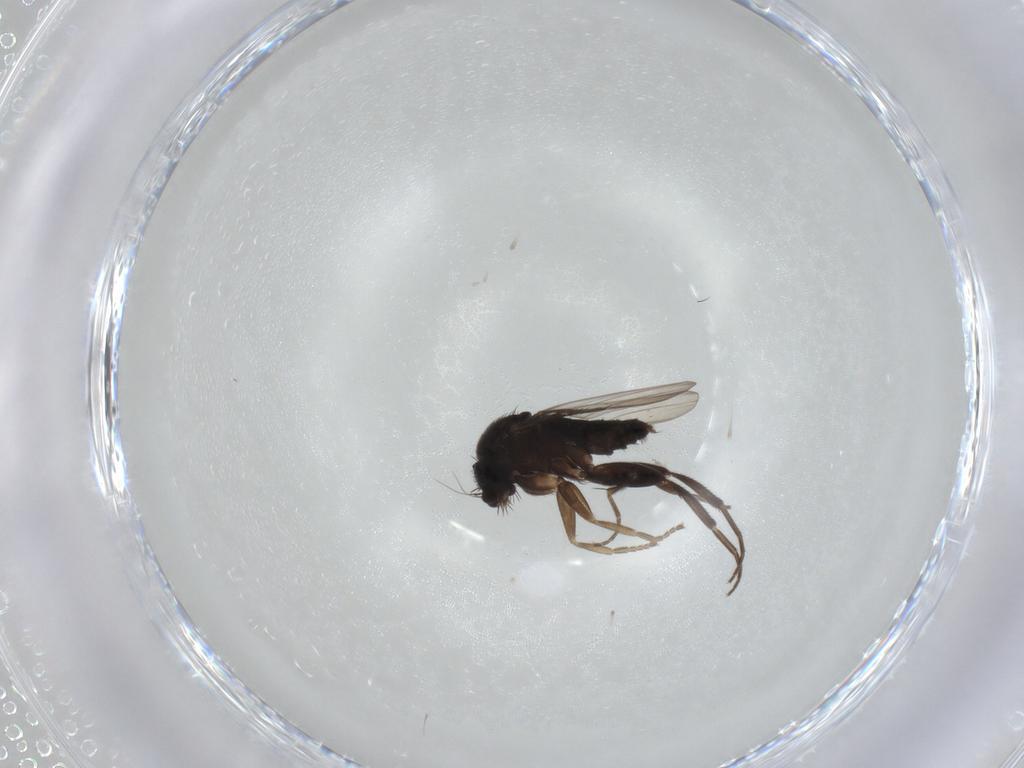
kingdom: Animalia
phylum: Arthropoda
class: Insecta
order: Diptera
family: Phoridae
